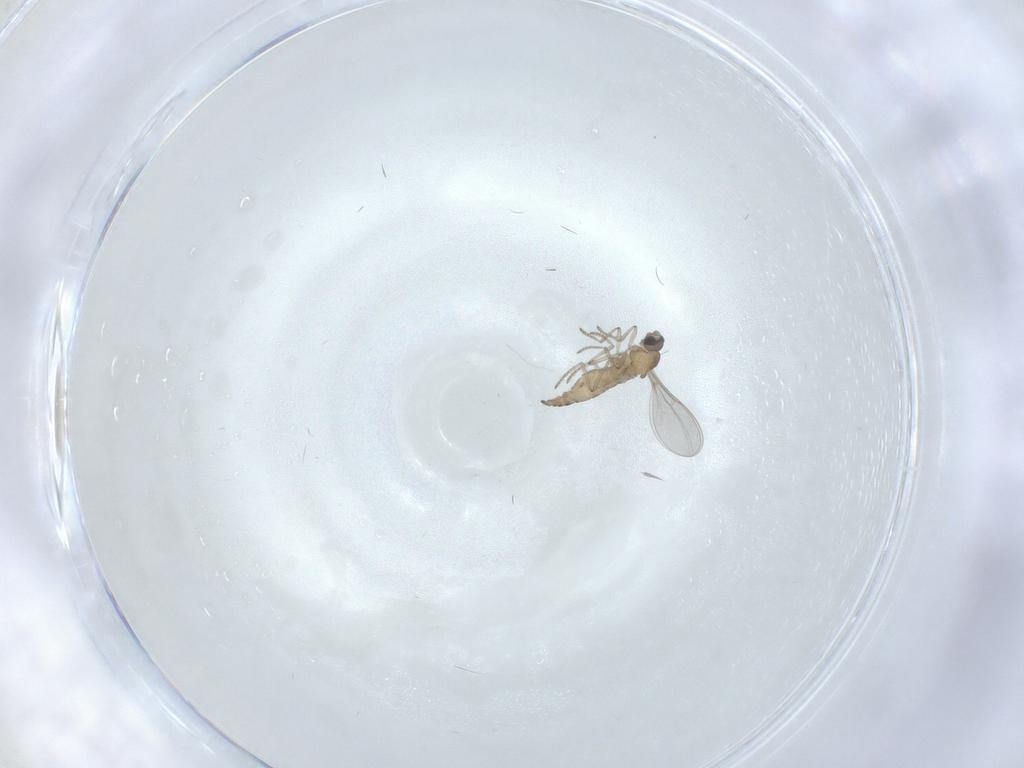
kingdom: Animalia
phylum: Arthropoda
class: Insecta
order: Diptera
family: Cecidomyiidae
